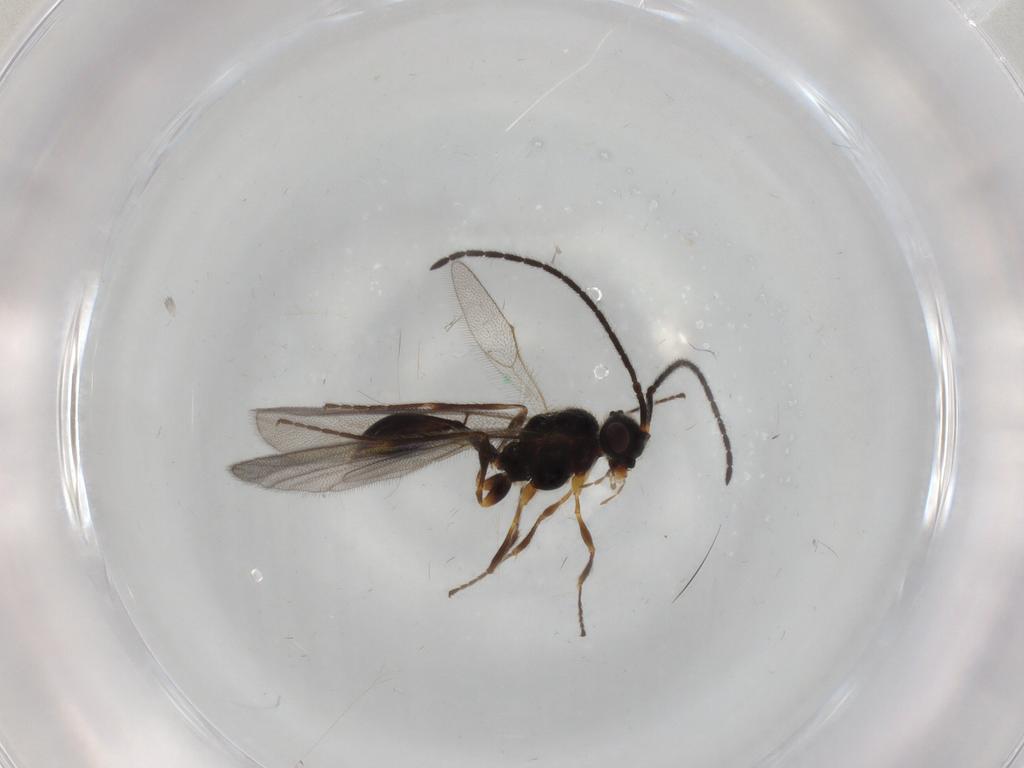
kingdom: Animalia
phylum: Arthropoda
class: Insecta
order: Hymenoptera
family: Diapriidae
